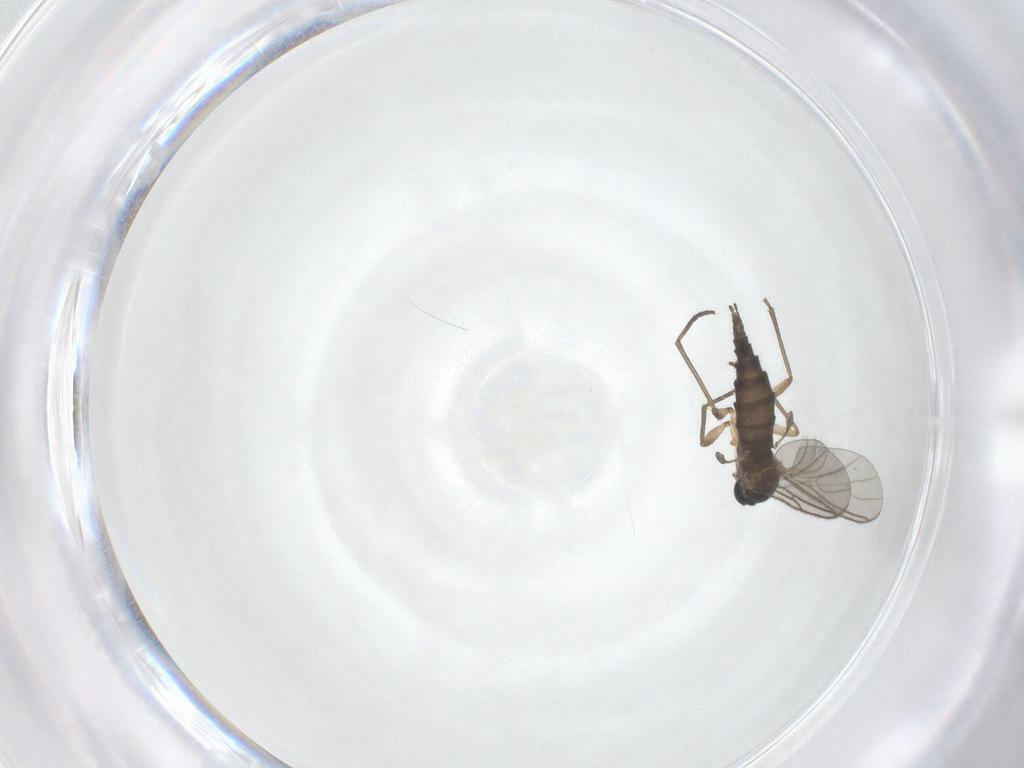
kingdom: Animalia
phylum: Arthropoda
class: Insecta
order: Diptera
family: Sciaridae
